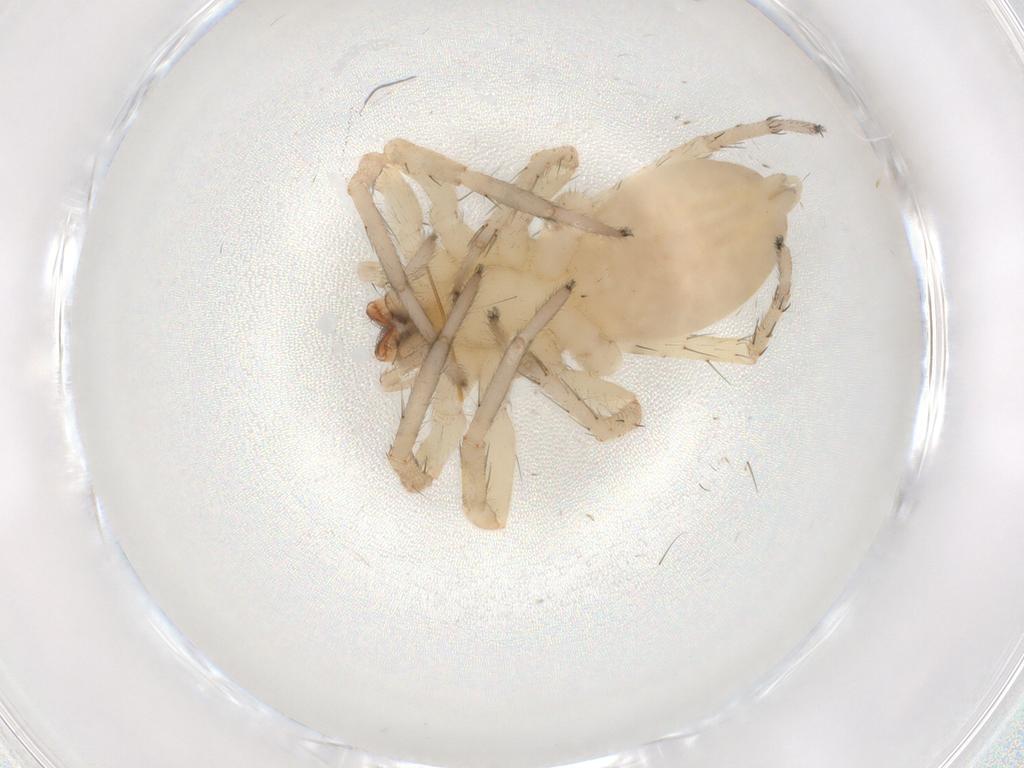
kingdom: Animalia
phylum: Arthropoda
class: Arachnida
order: Araneae
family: Anyphaenidae
